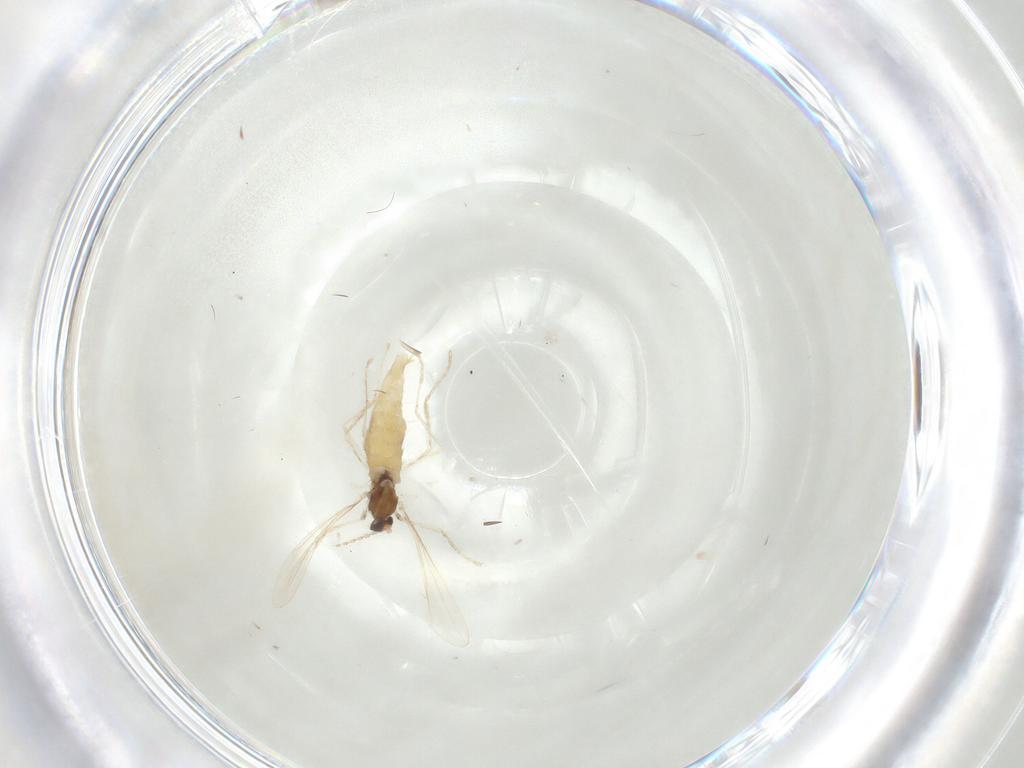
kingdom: Animalia
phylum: Arthropoda
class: Insecta
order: Diptera
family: Cecidomyiidae
